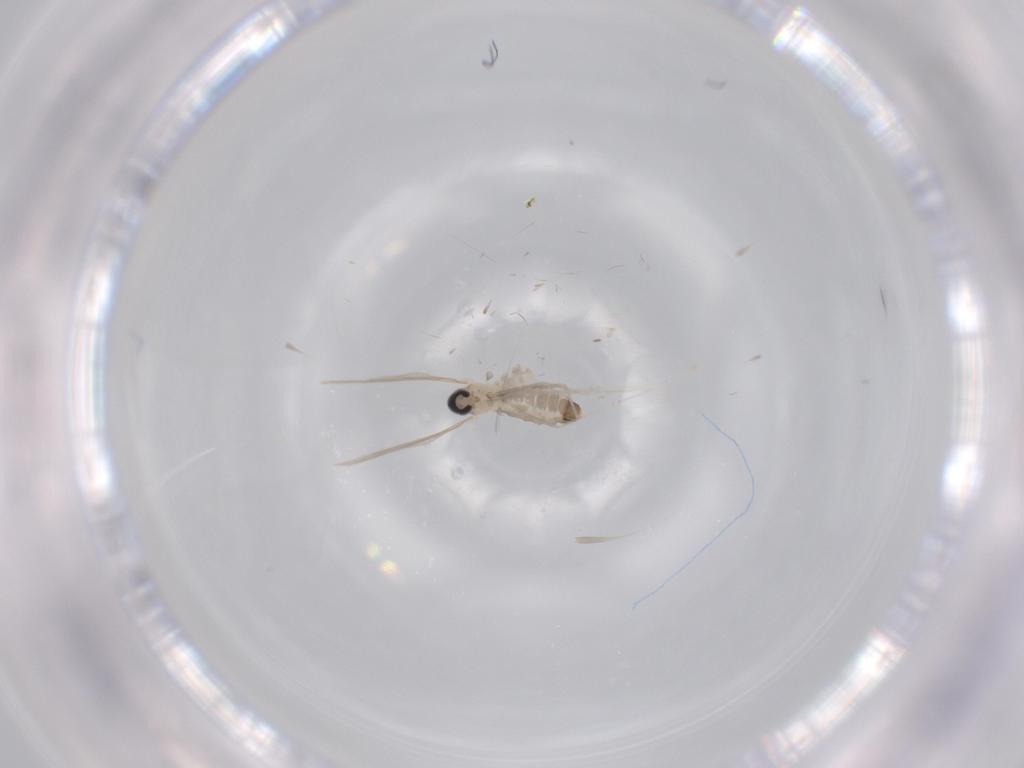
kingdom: Animalia
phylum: Arthropoda
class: Insecta
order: Diptera
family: Cecidomyiidae
